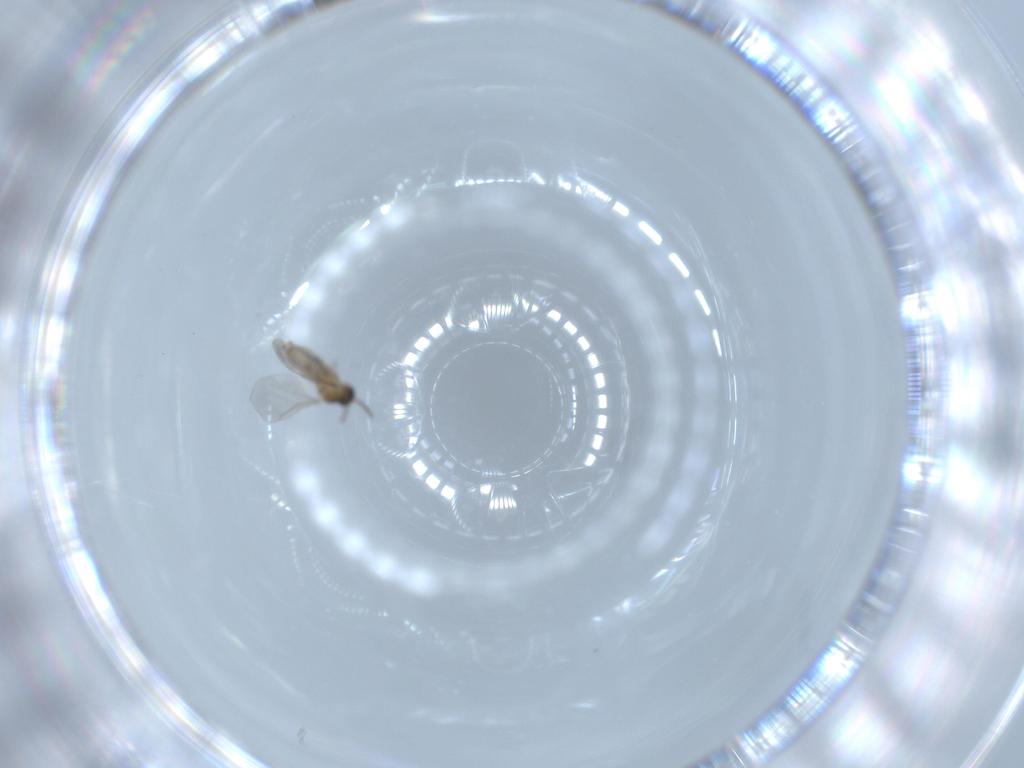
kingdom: Animalia
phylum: Arthropoda
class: Insecta
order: Diptera
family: Cecidomyiidae
